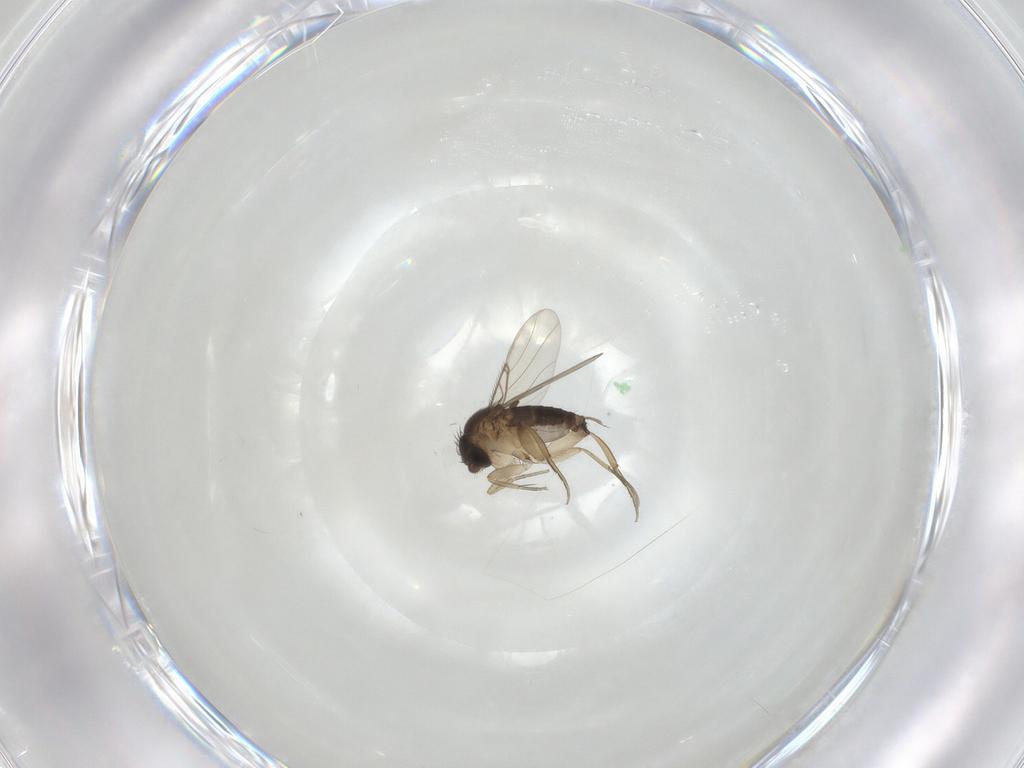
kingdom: Animalia
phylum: Arthropoda
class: Insecta
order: Diptera
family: Phoridae
